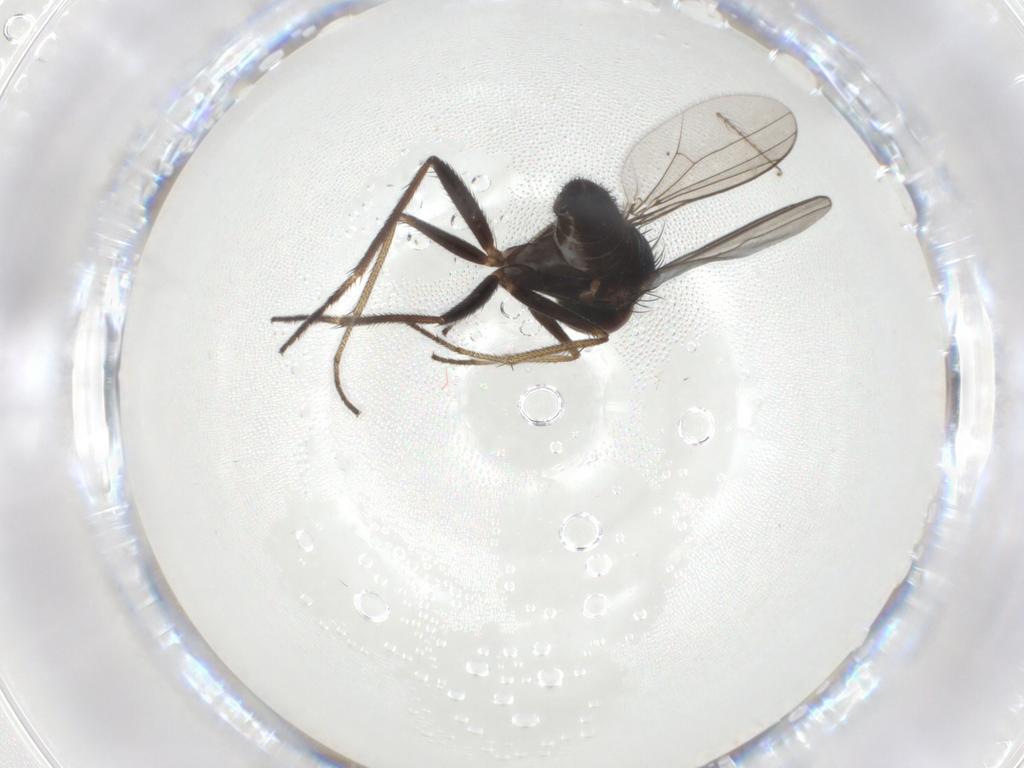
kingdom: Animalia
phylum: Arthropoda
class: Insecta
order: Diptera
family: Dolichopodidae
